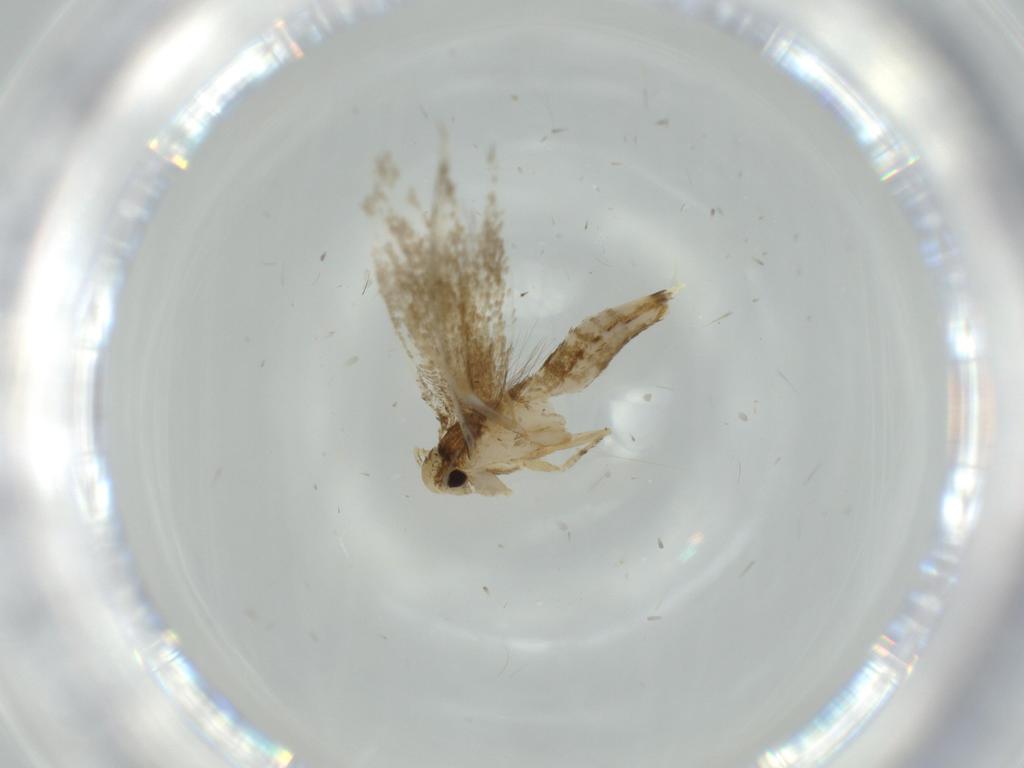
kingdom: Animalia
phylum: Arthropoda
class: Insecta
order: Lepidoptera
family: Tineidae
